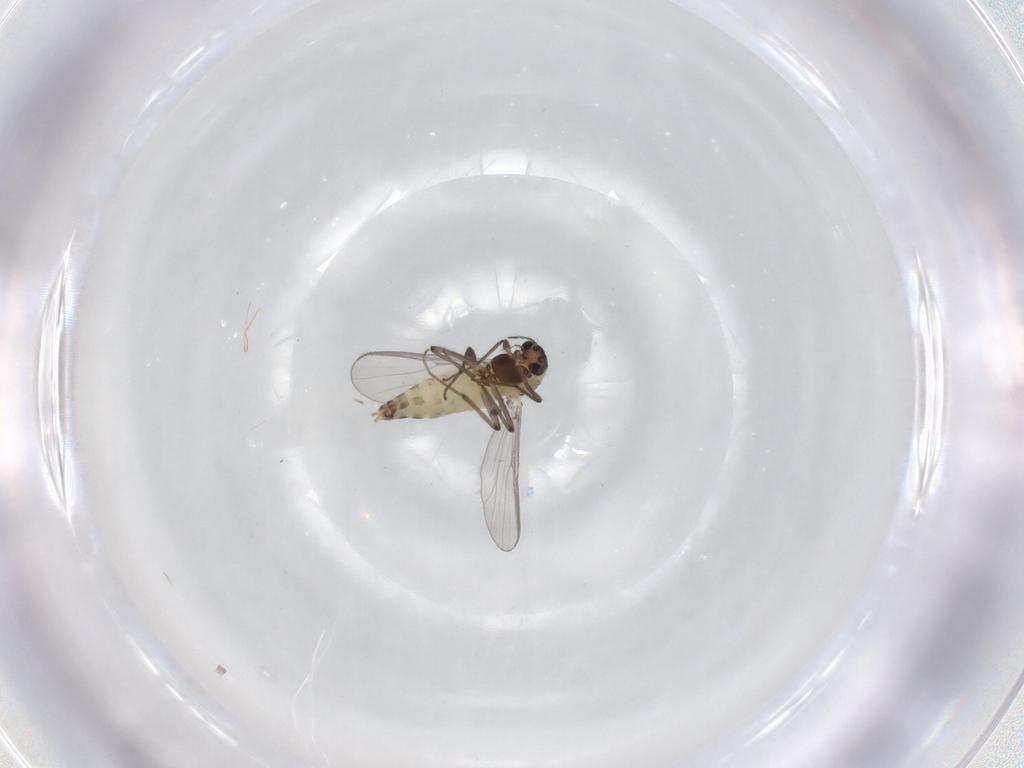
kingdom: Animalia
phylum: Arthropoda
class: Insecta
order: Diptera
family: Chironomidae
